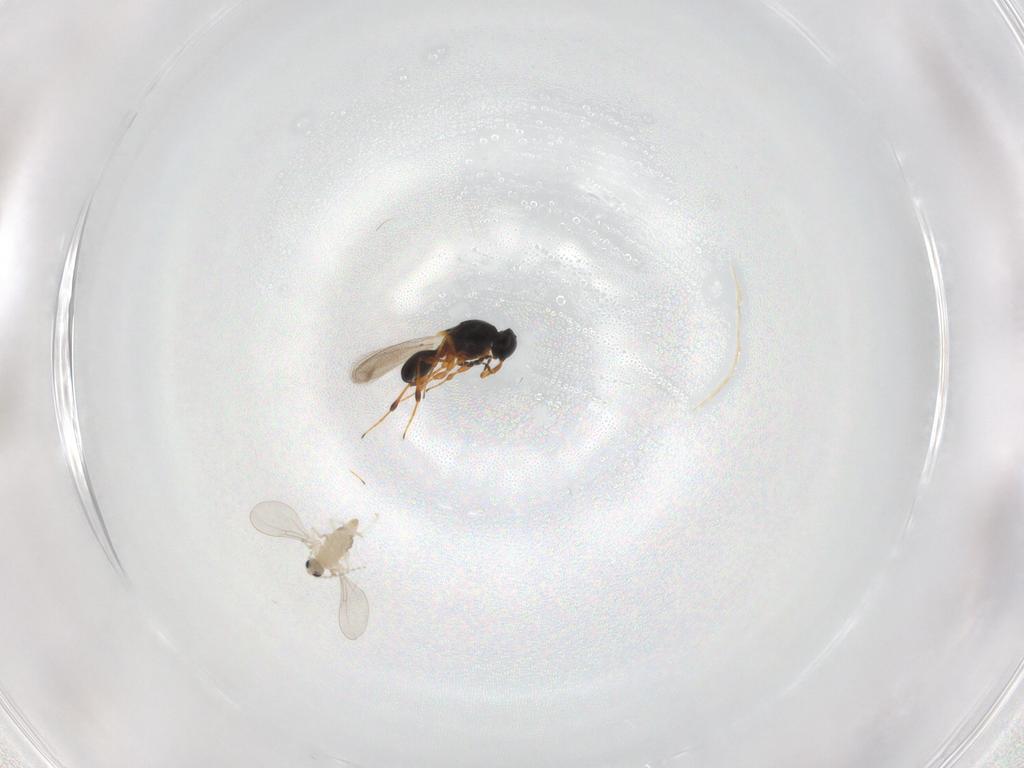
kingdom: Animalia
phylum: Arthropoda
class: Insecta
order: Hymenoptera
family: Platygastridae
